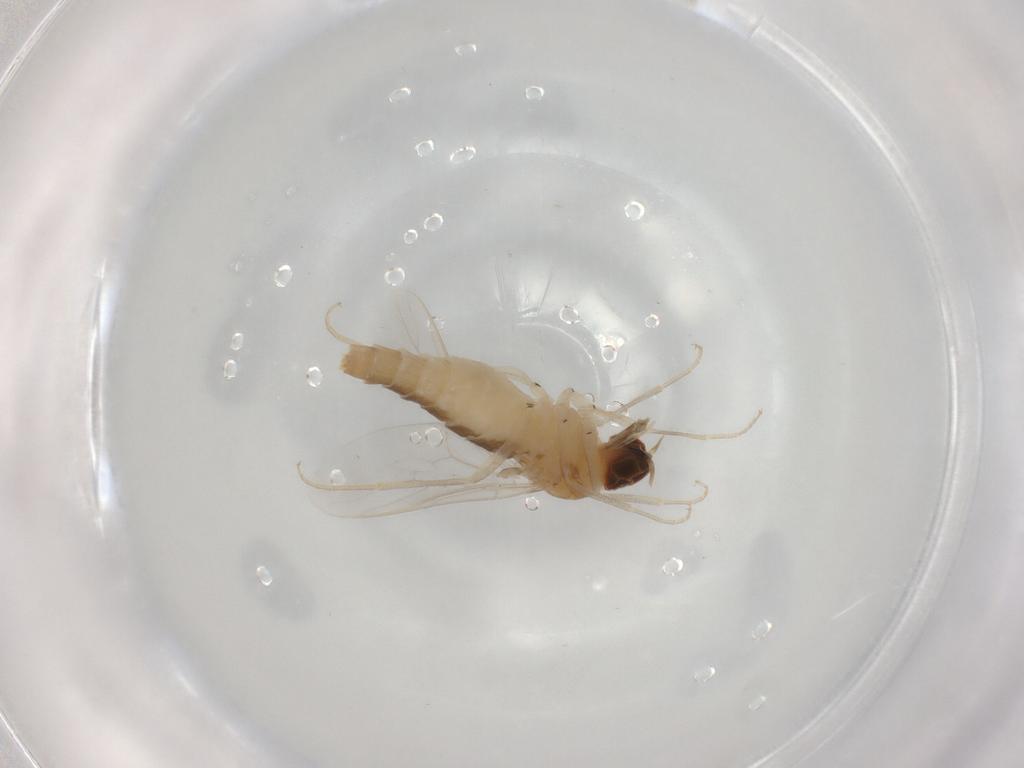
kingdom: Animalia
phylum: Arthropoda
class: Insecta
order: Diptera
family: Scenopinidae
